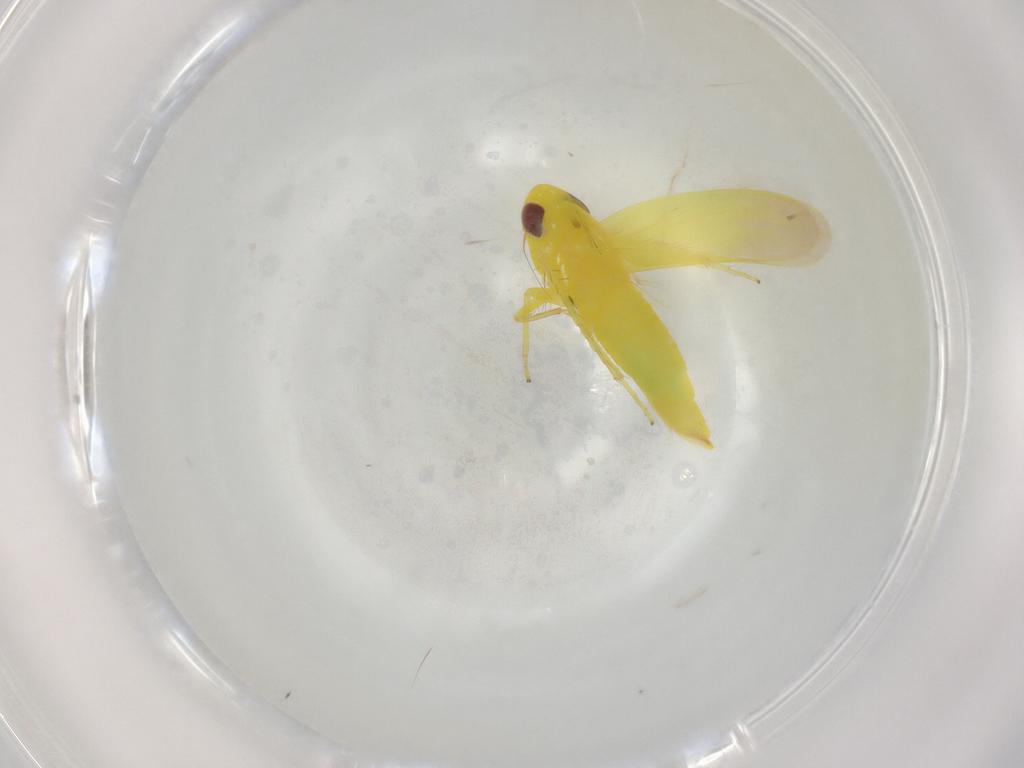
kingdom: Animalia
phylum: Arthropoda
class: Insecta
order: Hemiptera
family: Cicadellidae
